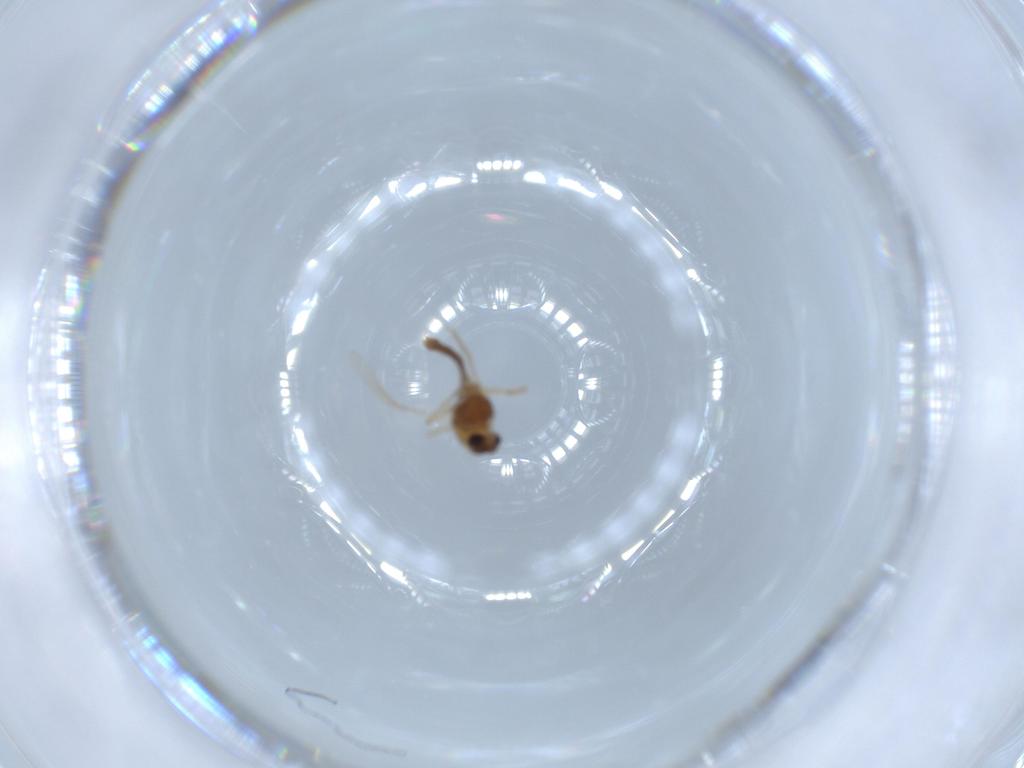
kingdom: Animalia
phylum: Arthropoda
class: Insecta
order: Diptera
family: Chironomidae
